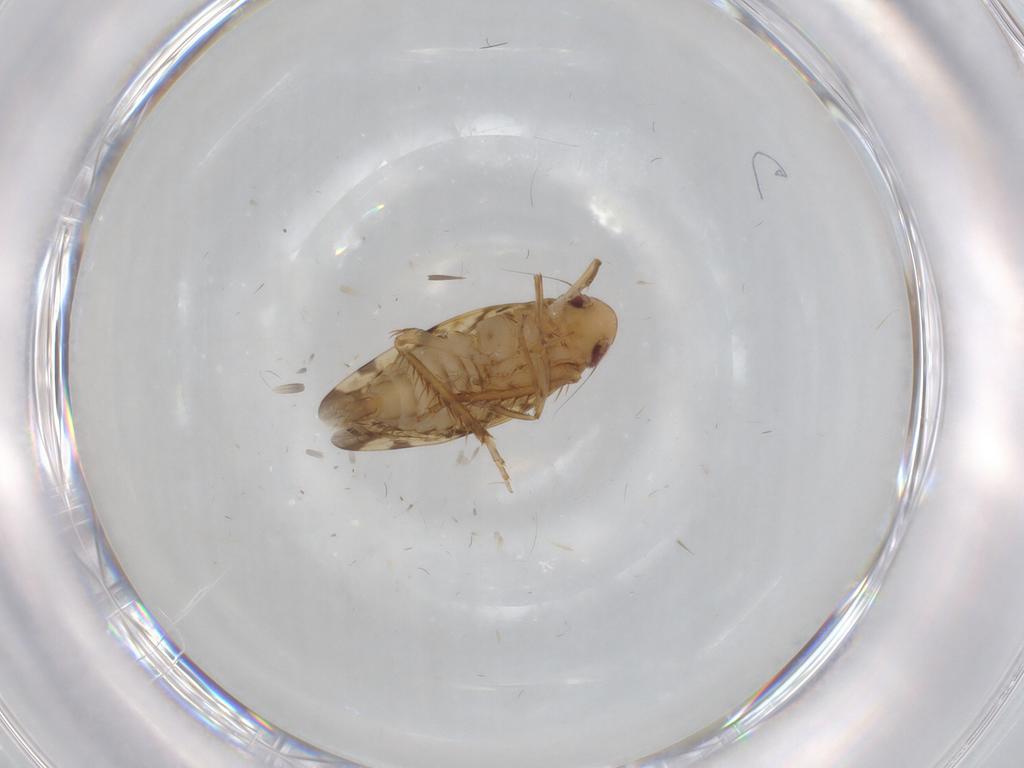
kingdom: Animalia
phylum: Arthropoda
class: Insecta
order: Hemiptera
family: Cicadellidae
